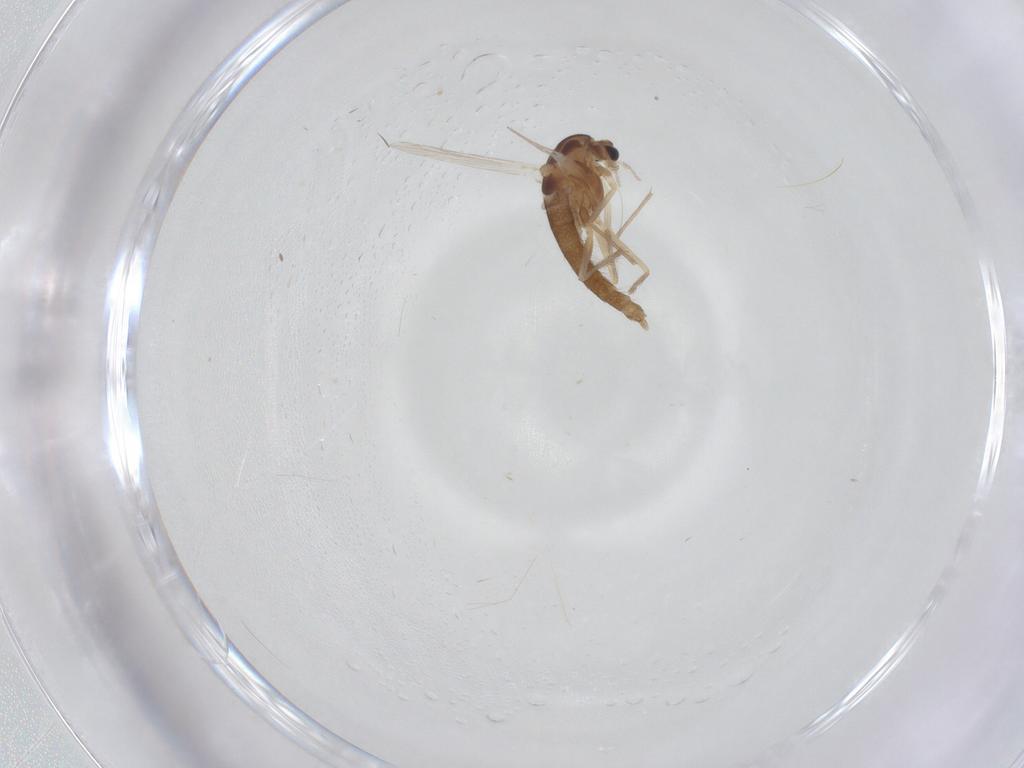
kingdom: Animalia
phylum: Arthropoda
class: Insecta
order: Diptera
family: Chironomidae
